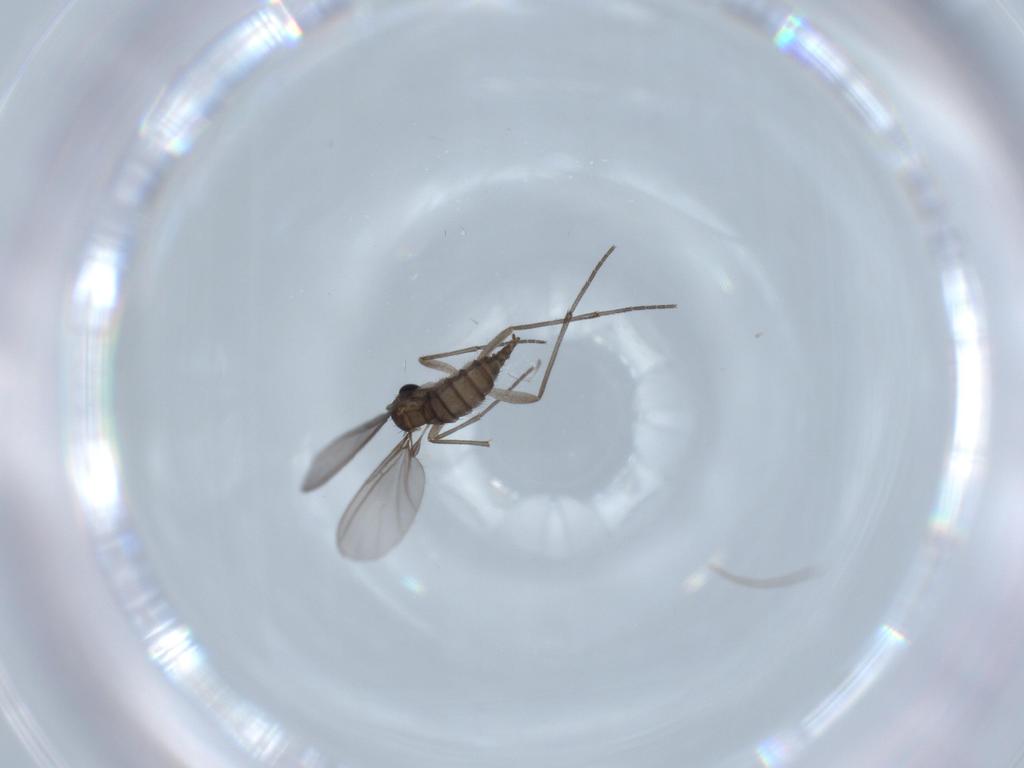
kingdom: Animalia
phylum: Arthropoda
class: Insecta
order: Diptera
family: Sciaridae
